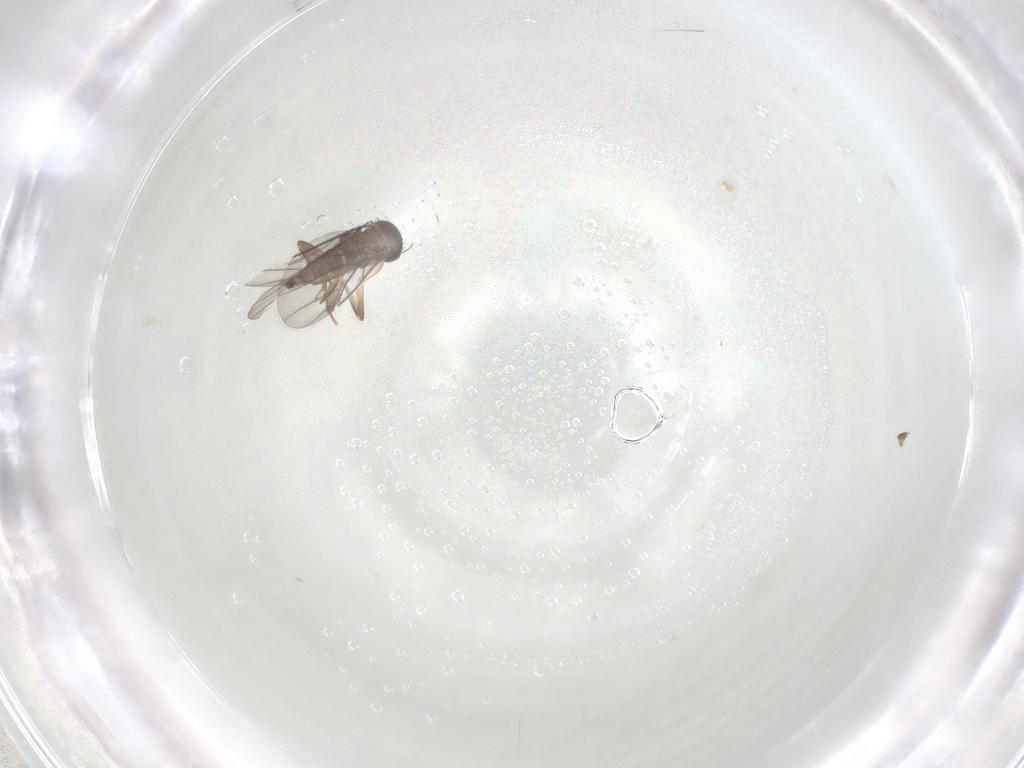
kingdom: Animalia
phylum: Arthropoda
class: Insecta
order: Diptera
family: Phoridae
